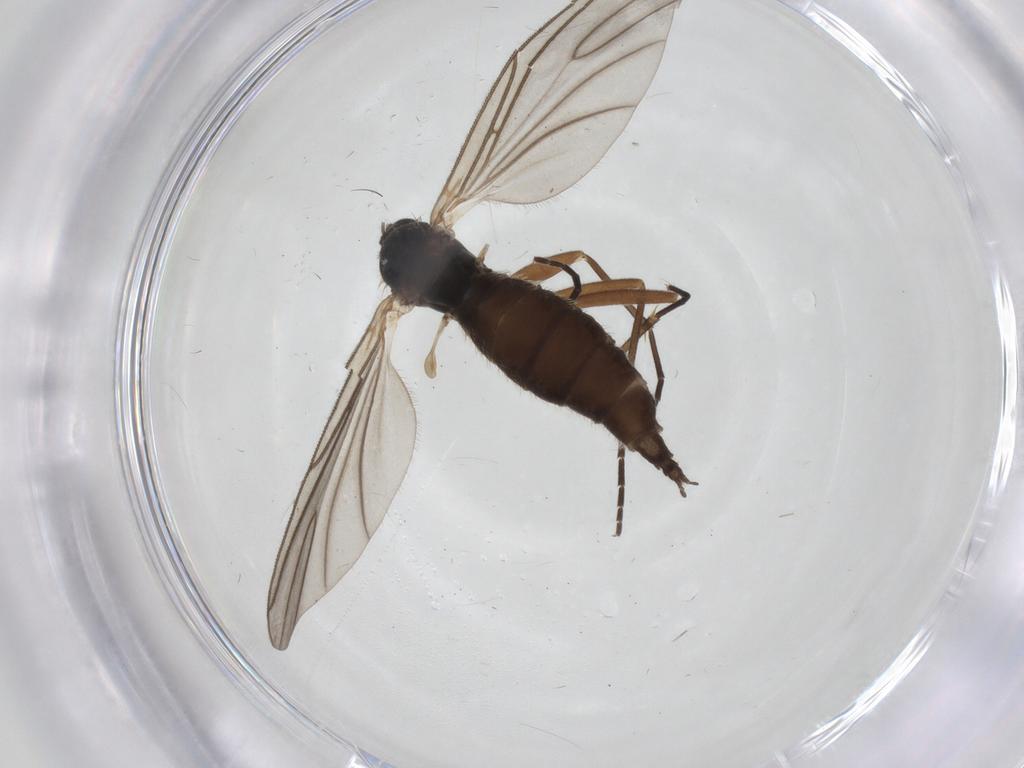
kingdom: Animalia
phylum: Arthropoda
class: Insecta
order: Diptera
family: Sciaridae
